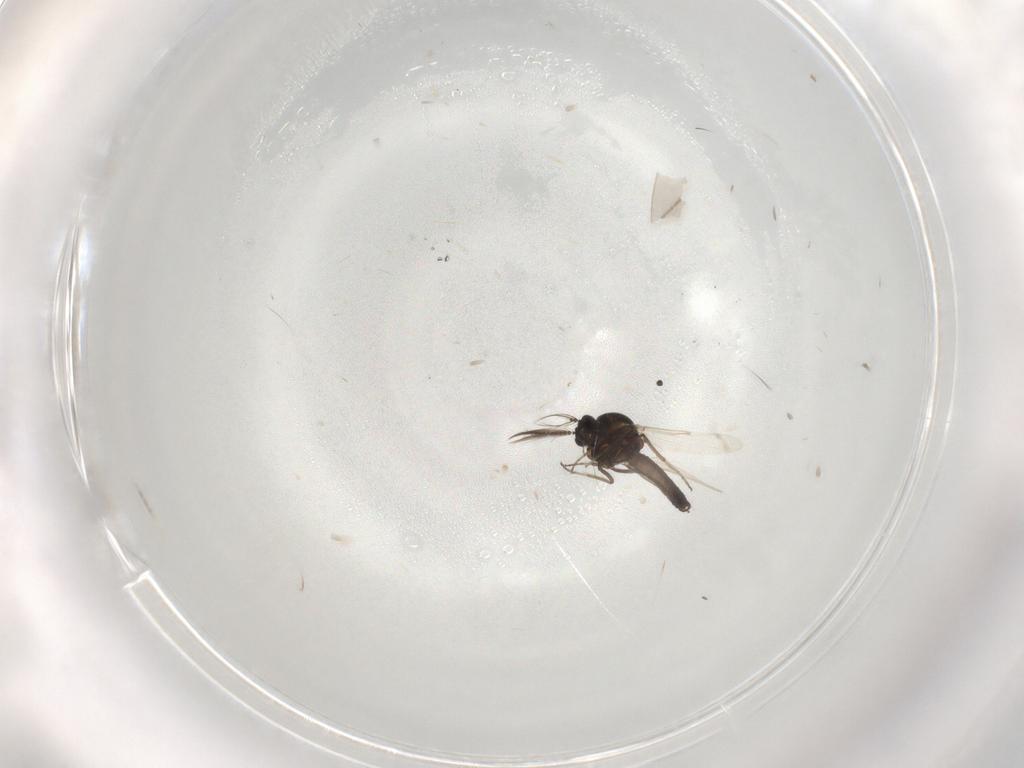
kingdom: Animalia
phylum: Arthropoda
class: Insecta
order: Diptera
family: Ceratopogonidae
